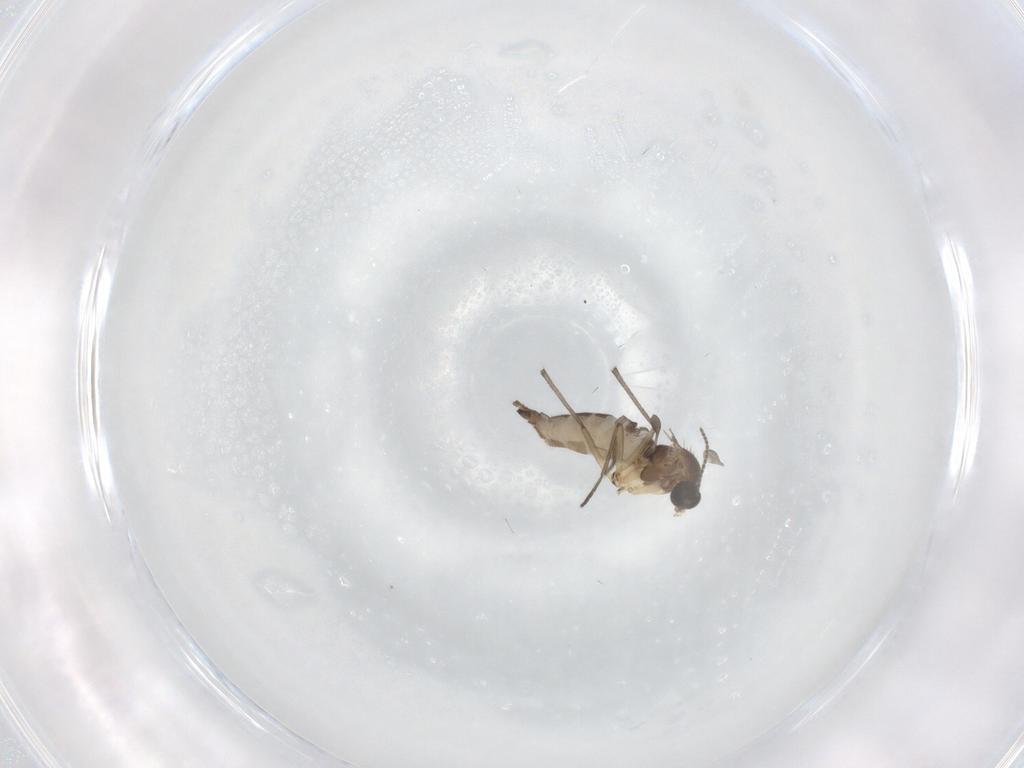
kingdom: Animalia
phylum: Arthropoda
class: Insecta
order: Diptera
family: Sciaridae
